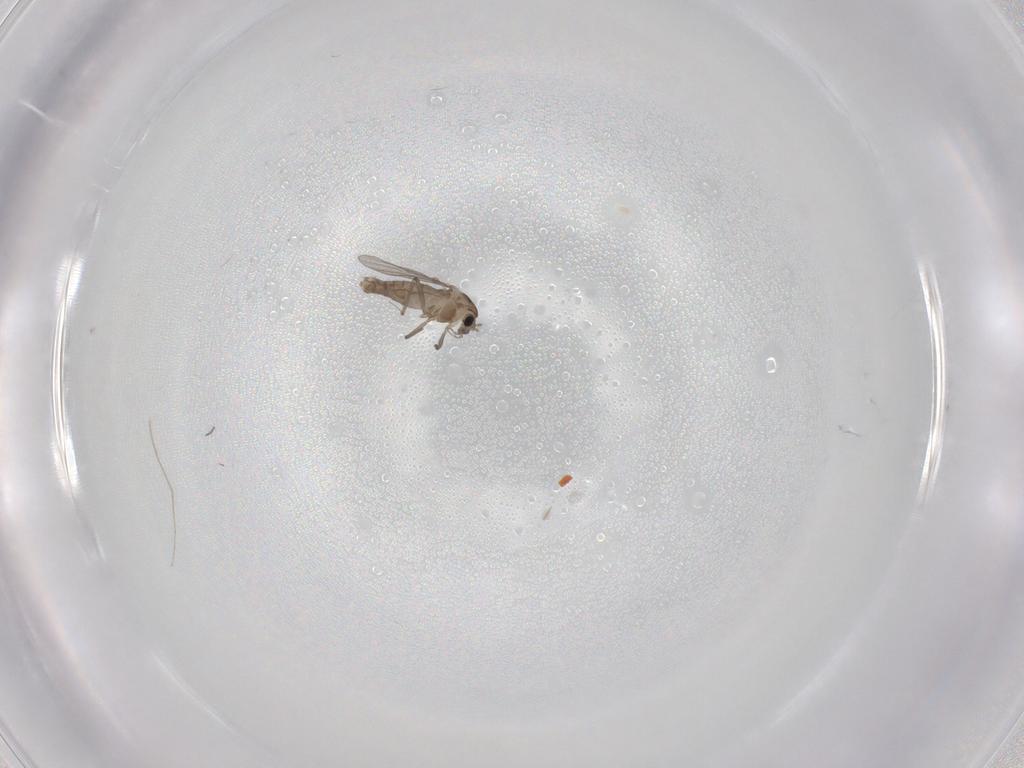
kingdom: Animalia
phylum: Arthropoda
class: Insecta
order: Diptera
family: Chironomidae
